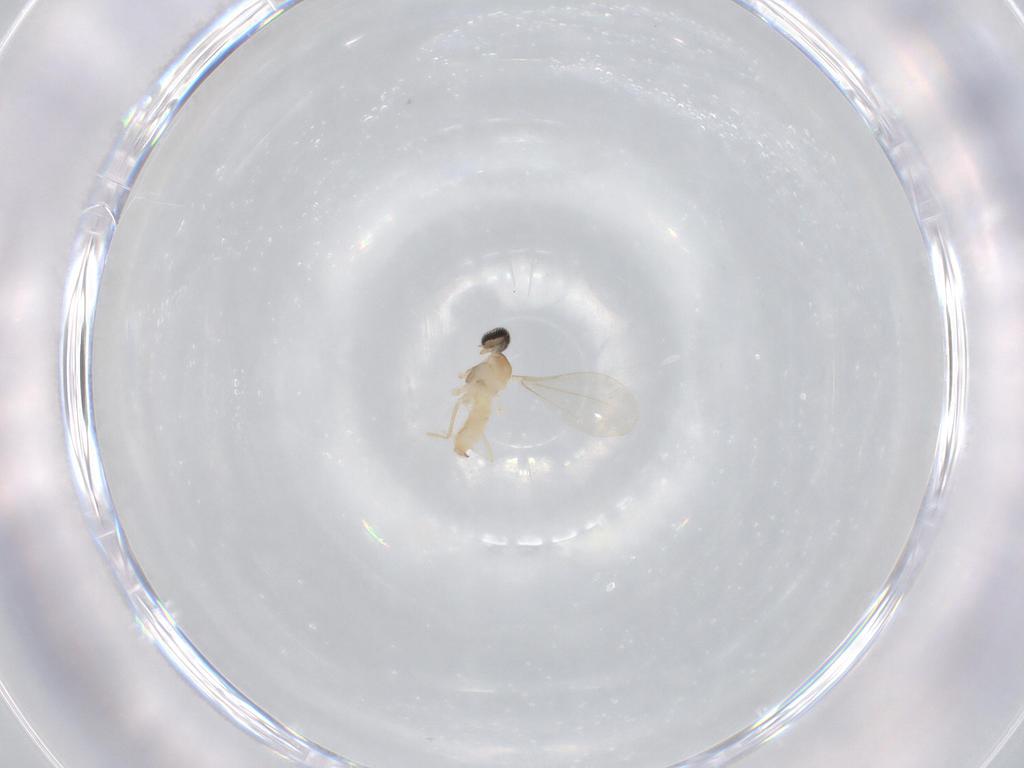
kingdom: Animalia
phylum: Arthropoda
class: Insecta
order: Diptera
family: Cecidomyiidae
